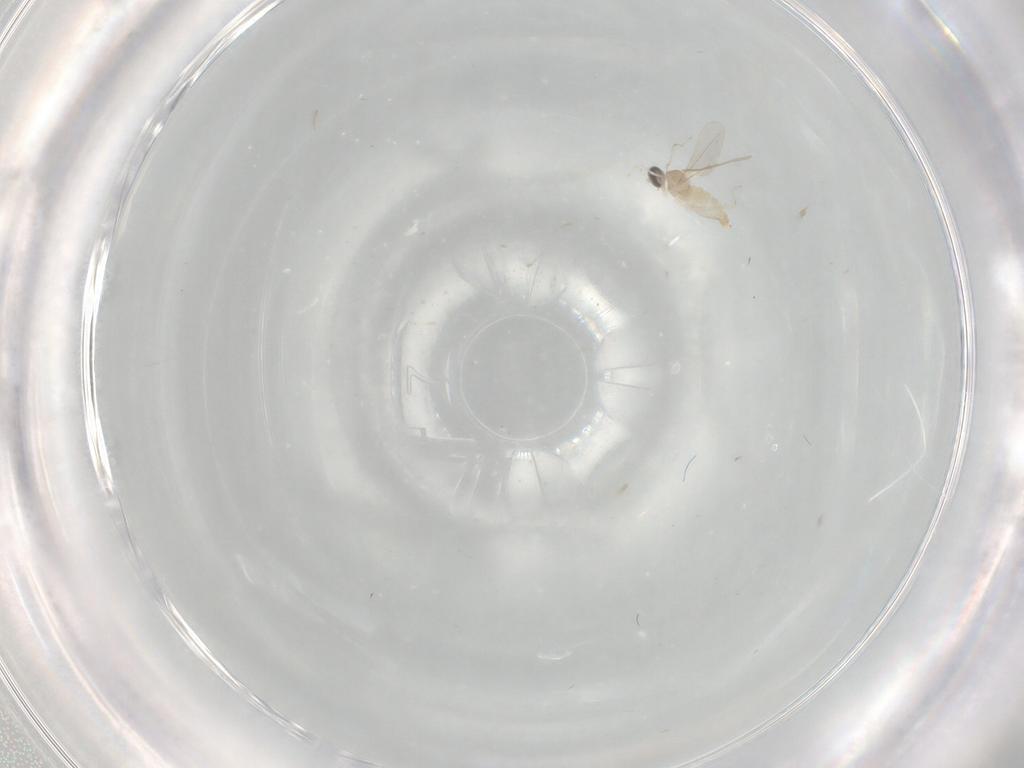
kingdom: Animalia
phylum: Arthropoda
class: Insecta
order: Diptera
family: Cecidomyiidae
